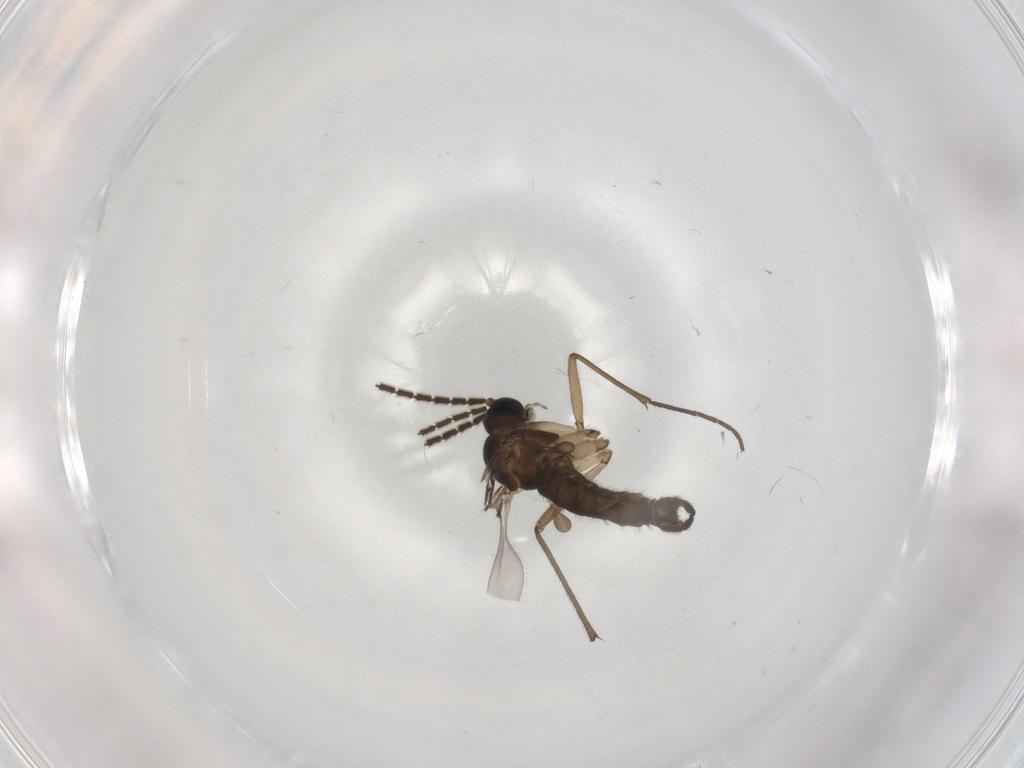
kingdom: Animalia
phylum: Arthropoda
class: Insecta
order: Diptera
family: Sciaridae
